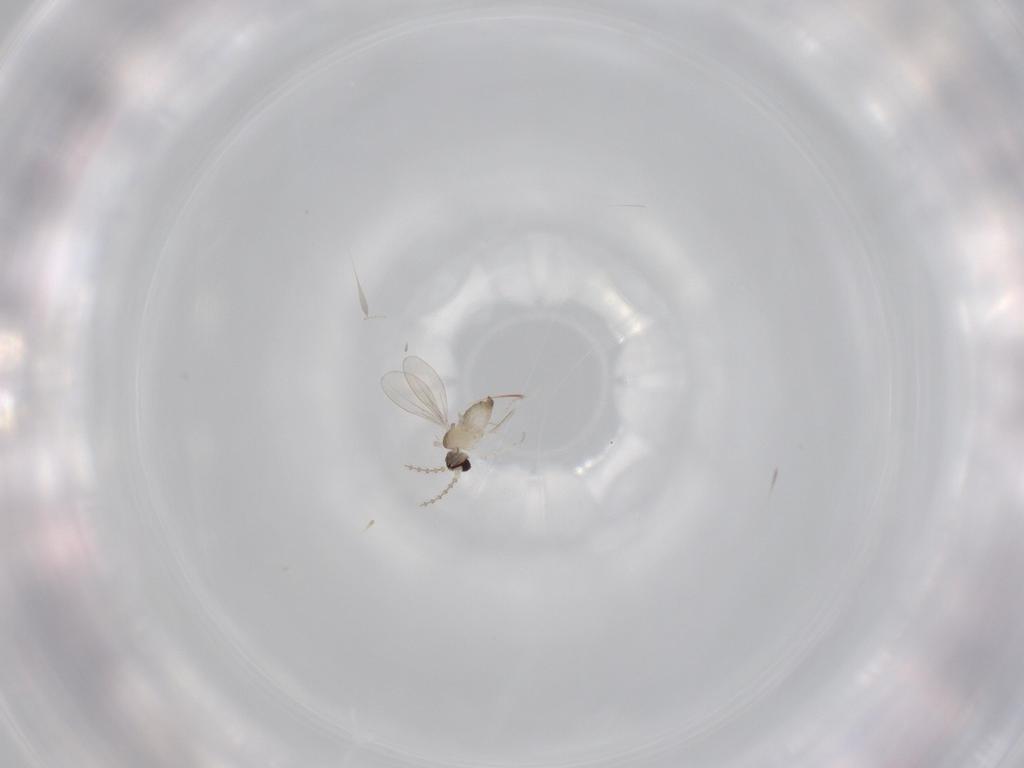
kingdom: Animalia
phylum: Arthropoda
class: Insecta
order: Diptera
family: Cecidomyiidae
